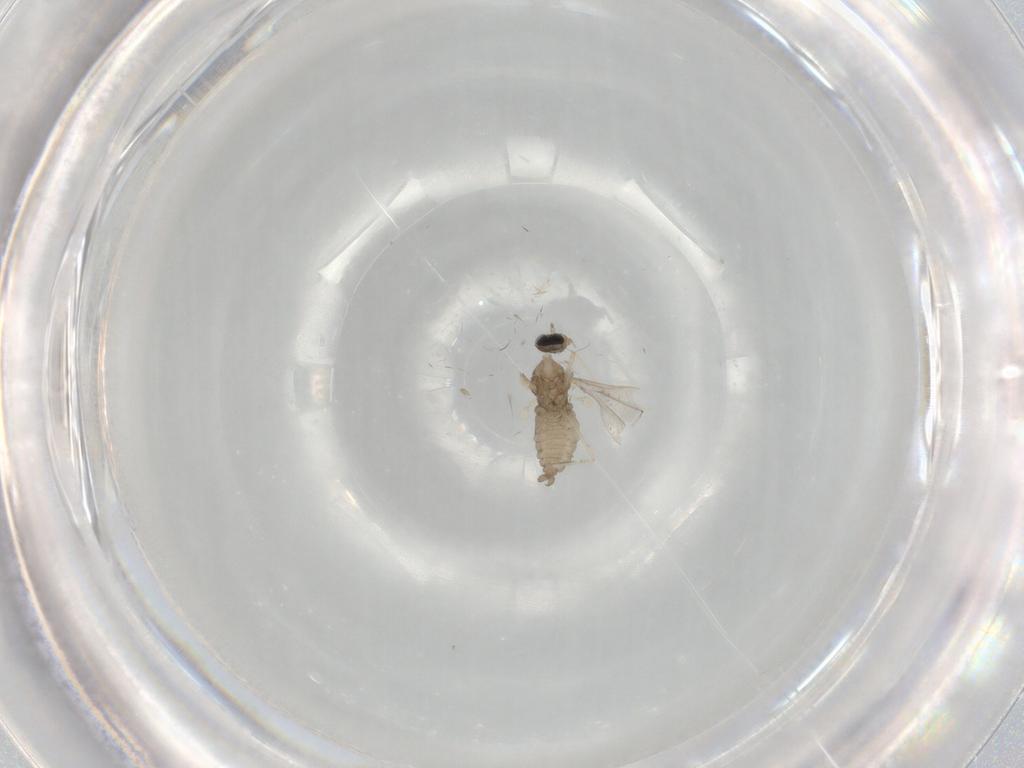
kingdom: Animalia
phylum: Arthropoda
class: Insecta
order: Diptera
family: Cecidomyiidae
